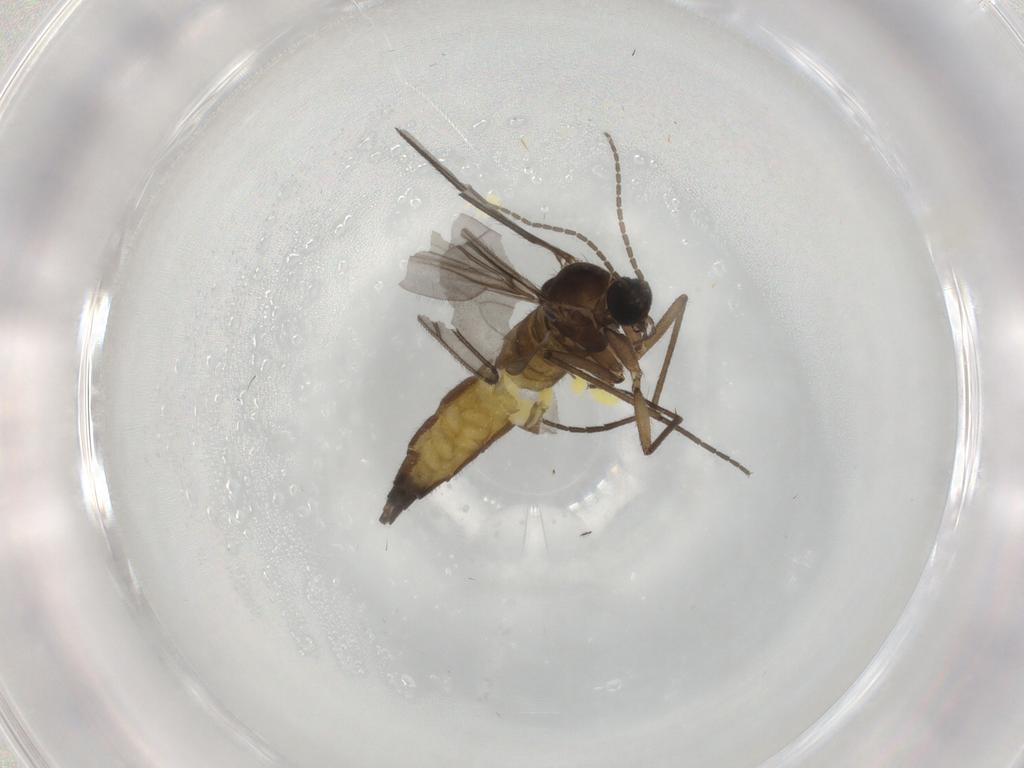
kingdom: Animalia
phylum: Arthropoda
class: Insecta
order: Diptera
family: Sciaridae
